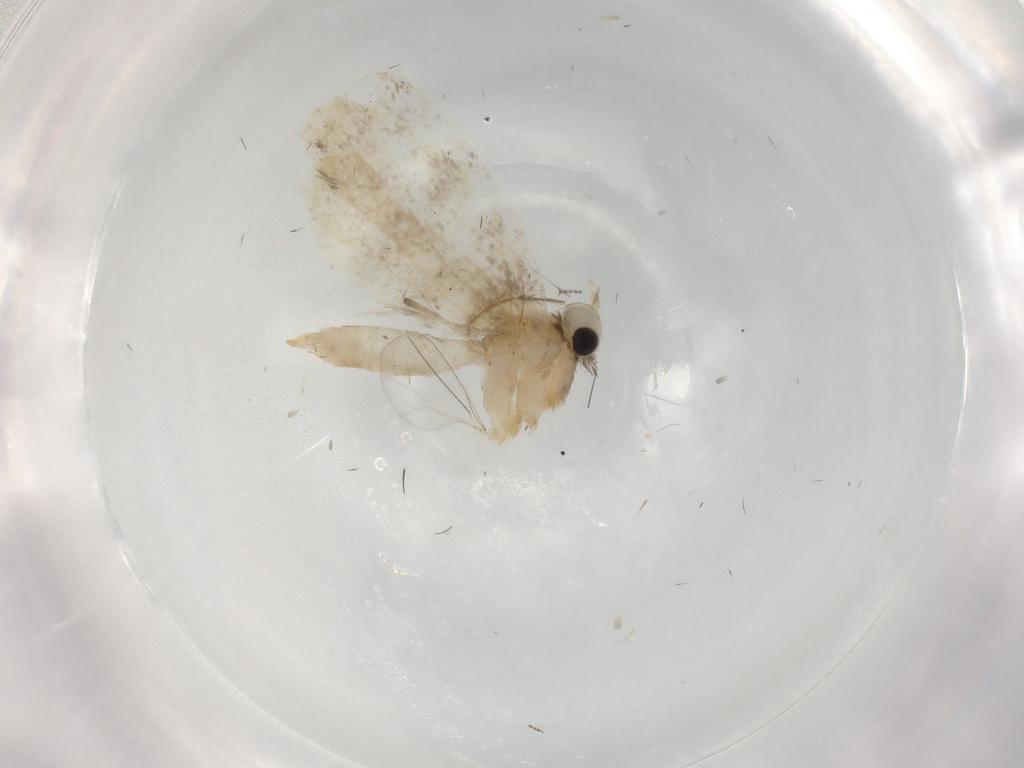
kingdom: Animalia
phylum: Arthropoda
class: Insecta
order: Lepidoptera
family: Psychidae
